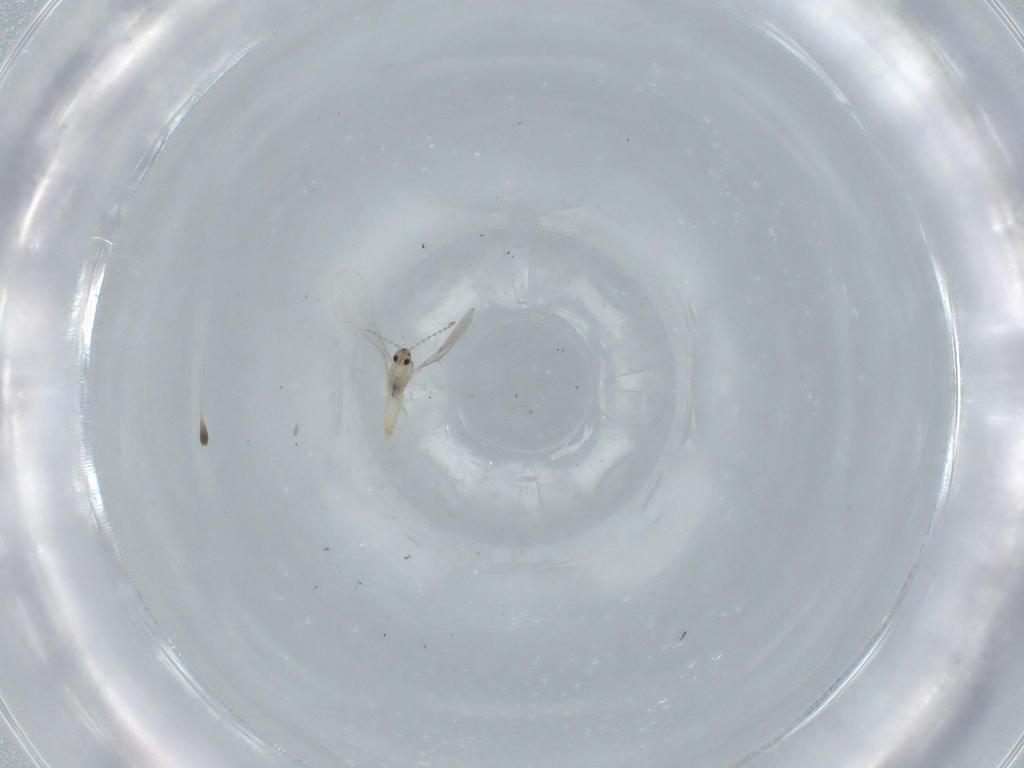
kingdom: Animalia
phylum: Arthropoda
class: Insecta
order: Diptera
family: Cecidomyiidae
